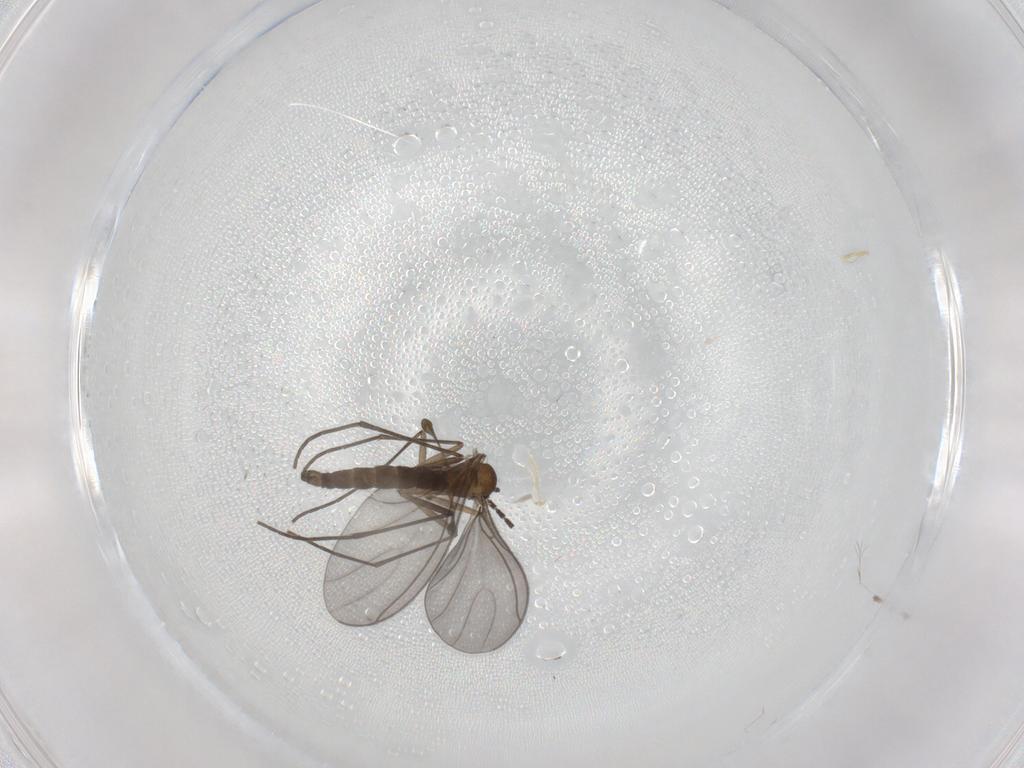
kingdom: Animalia
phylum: Arthropoda
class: Insecta
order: Diptera
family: Sciaridae
